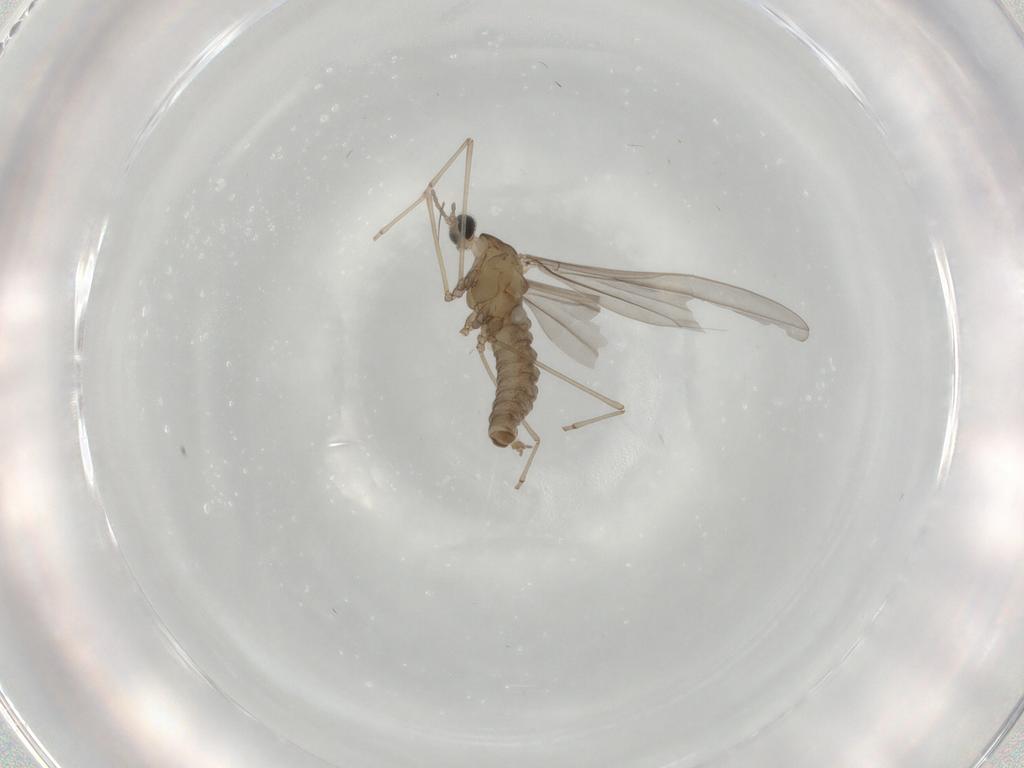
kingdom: Animalia
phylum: Arthropoda
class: Insecta
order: Diptera
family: Cecidomyiidae
